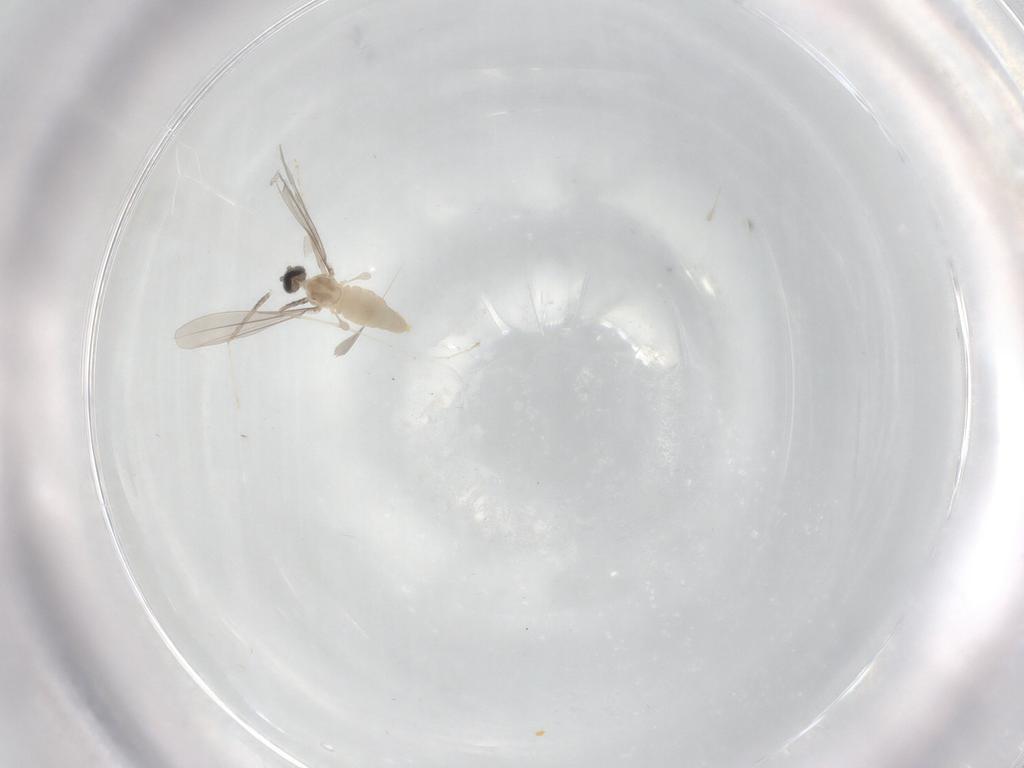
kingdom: Animalia
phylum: Arthropoda
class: Insecta
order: Diptera
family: Cecidomyiidae
